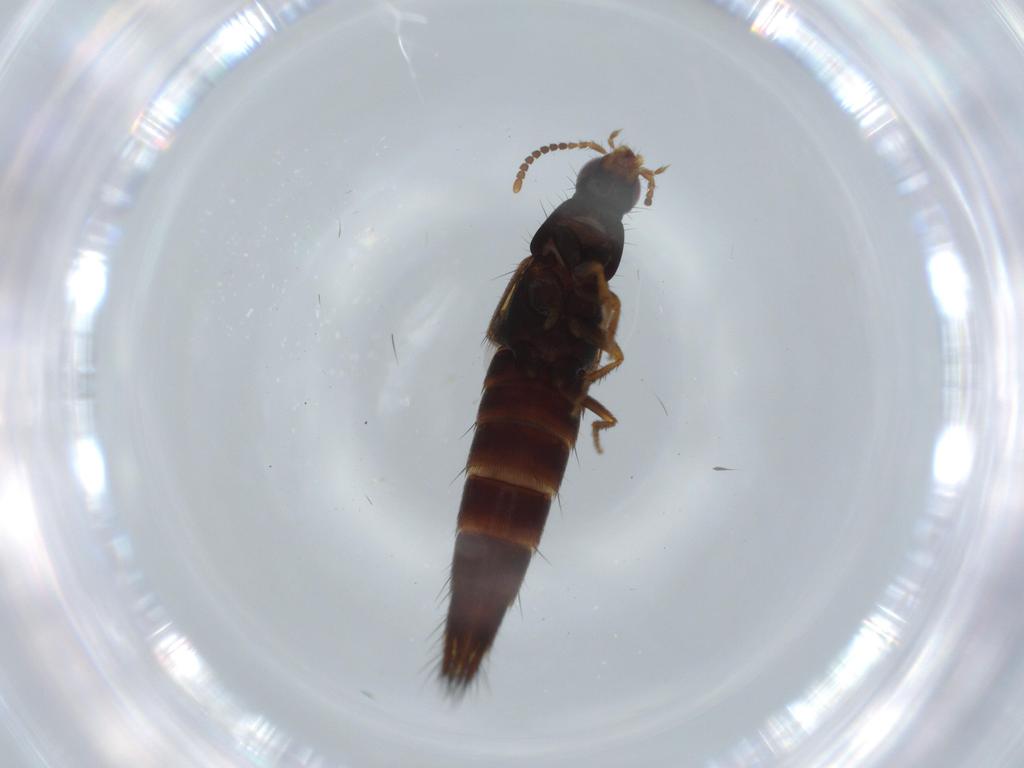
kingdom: Animalia
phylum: Arthropoda
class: Insecta
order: Coleoptera
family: Staphylinidae
